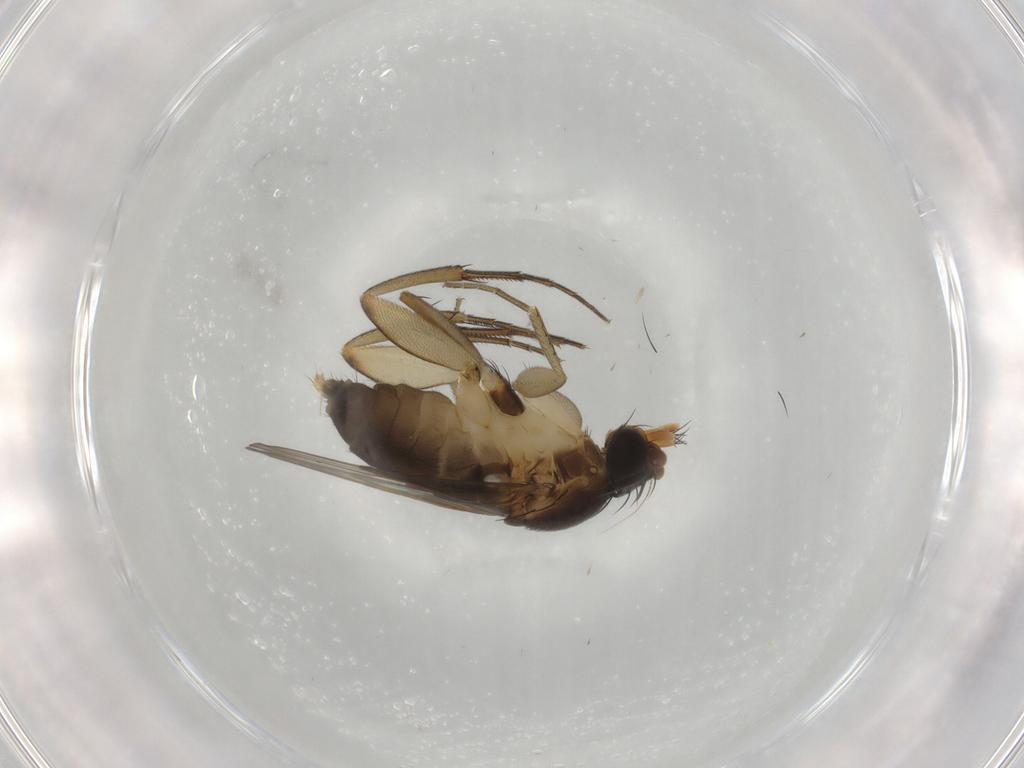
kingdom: Animalia
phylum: Arthropoda
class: Insecta
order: Diptera
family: Phoridae
